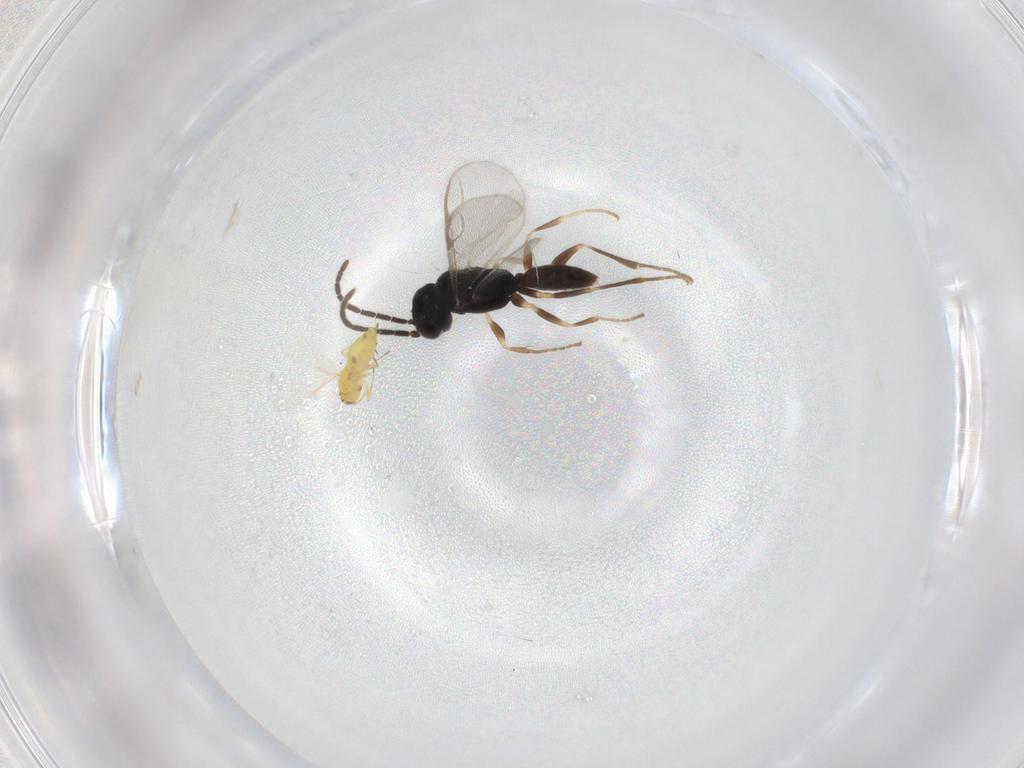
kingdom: Animalia
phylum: Arthropoda
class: Insecta
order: Hymenoptera
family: Dryinidae
